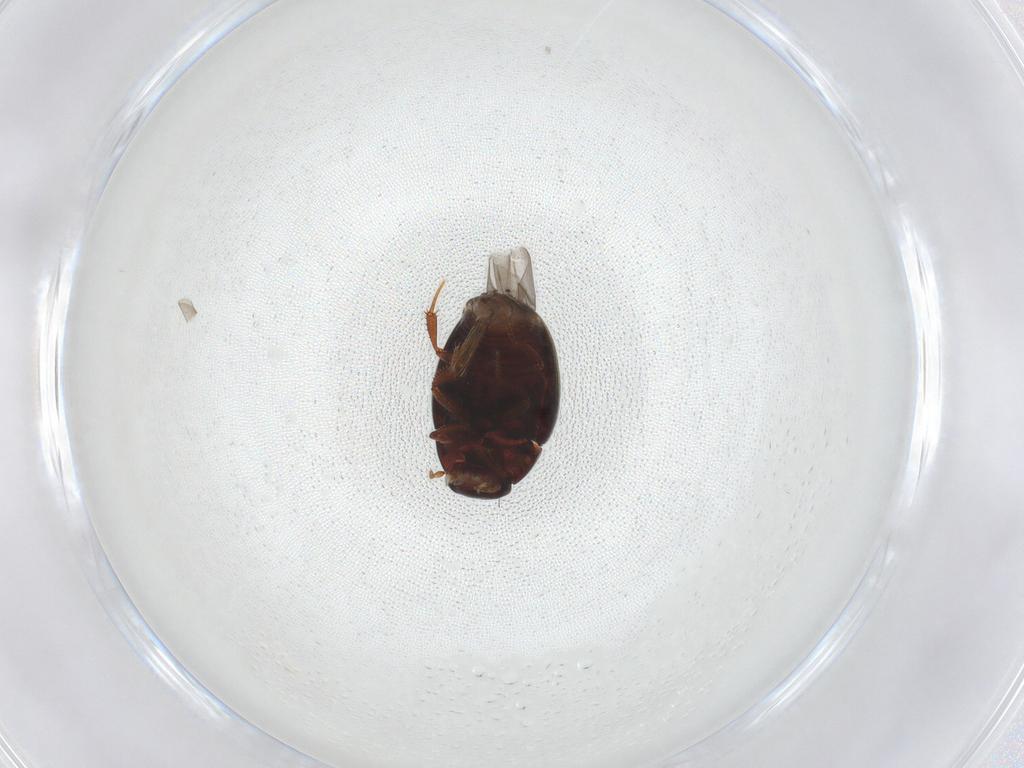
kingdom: Animalia
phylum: Arthropoda
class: Insecta
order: Coleoptera
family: Hydrophilidae
